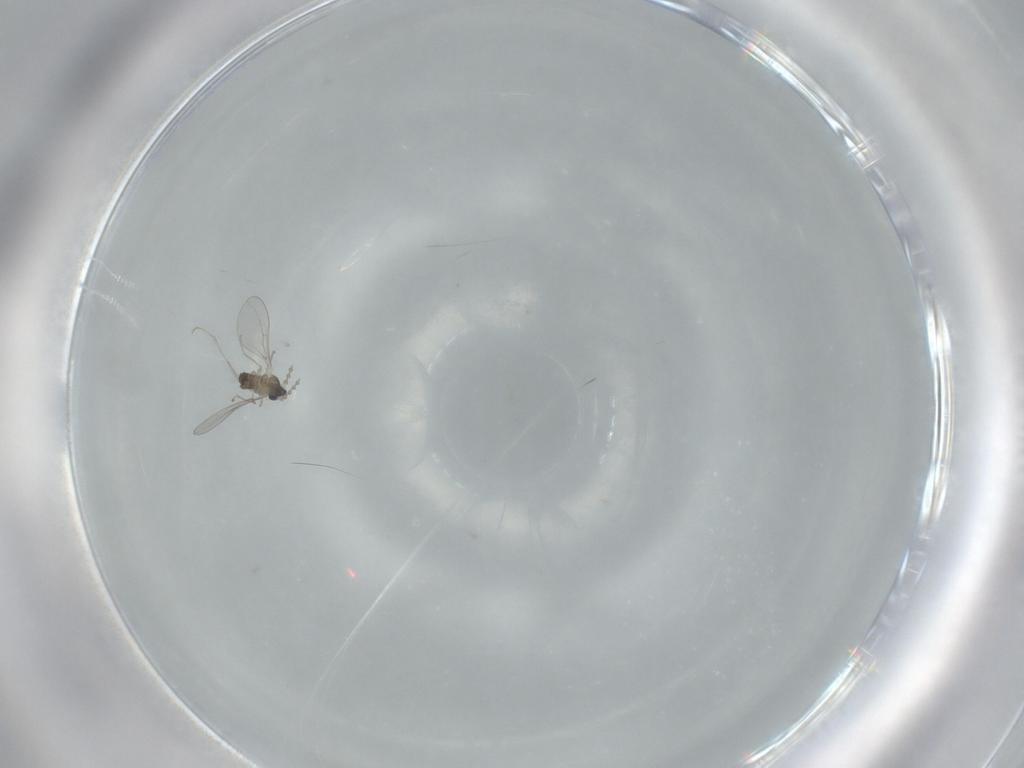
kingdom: Animalia
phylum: Arthropoda
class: Insecta
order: Diptera
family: Cecidomyiidae
